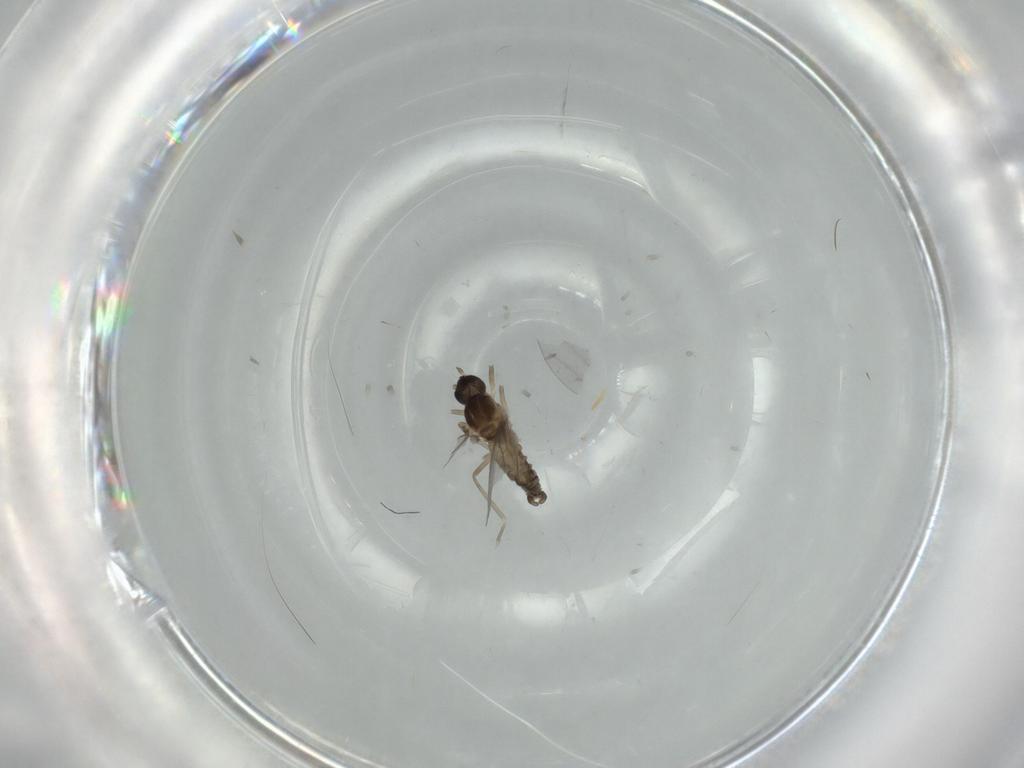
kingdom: Animalia
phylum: Arthropoda
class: Insecta
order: Diptera
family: Cecidomyiidae
